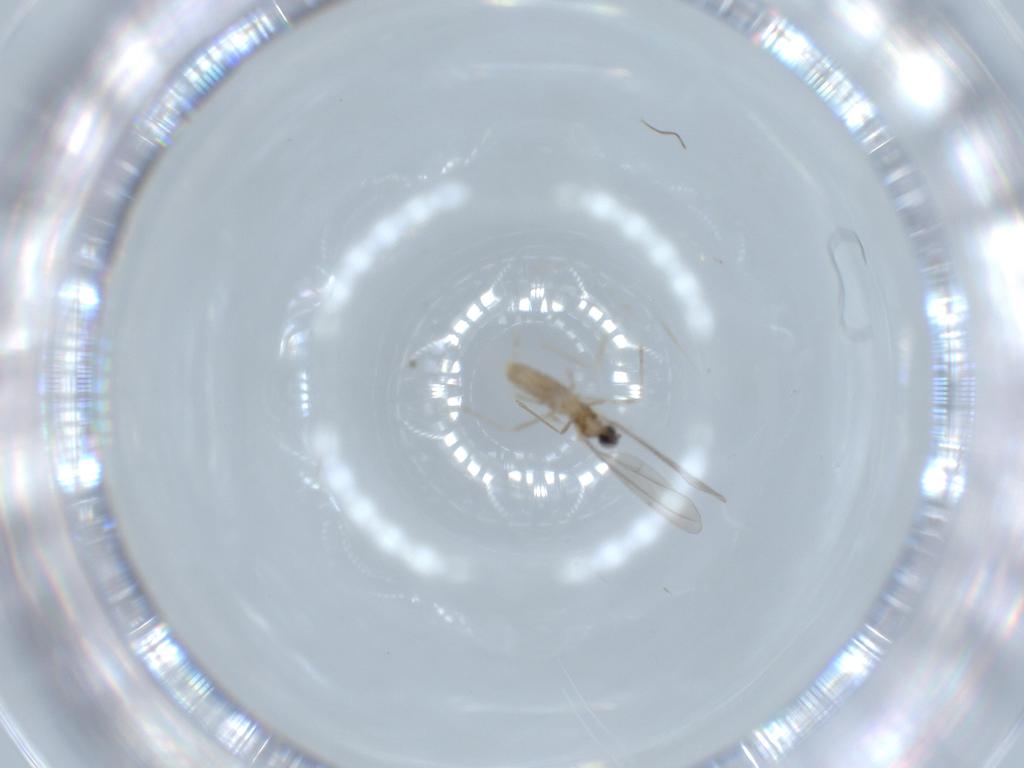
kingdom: Animalia
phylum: Arthropoda
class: Insecta
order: Diptera
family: Cecidomyiidae
